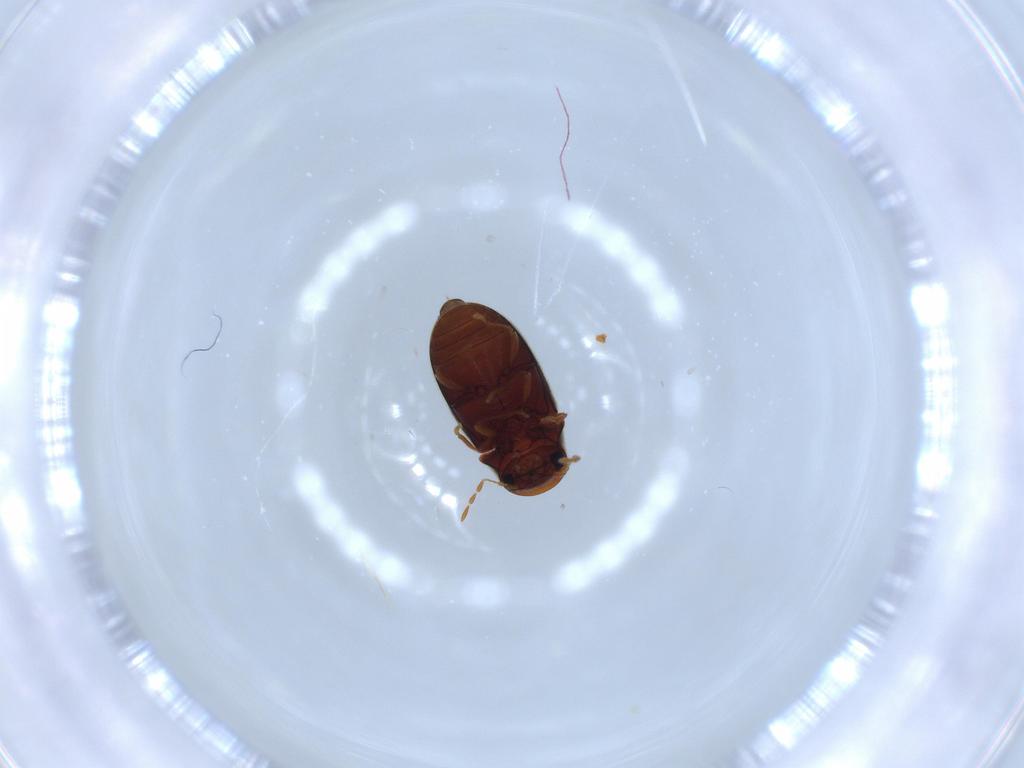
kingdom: Animalia
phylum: Arthropoda
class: Insecta
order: Coleoptera
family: Ptinidae
